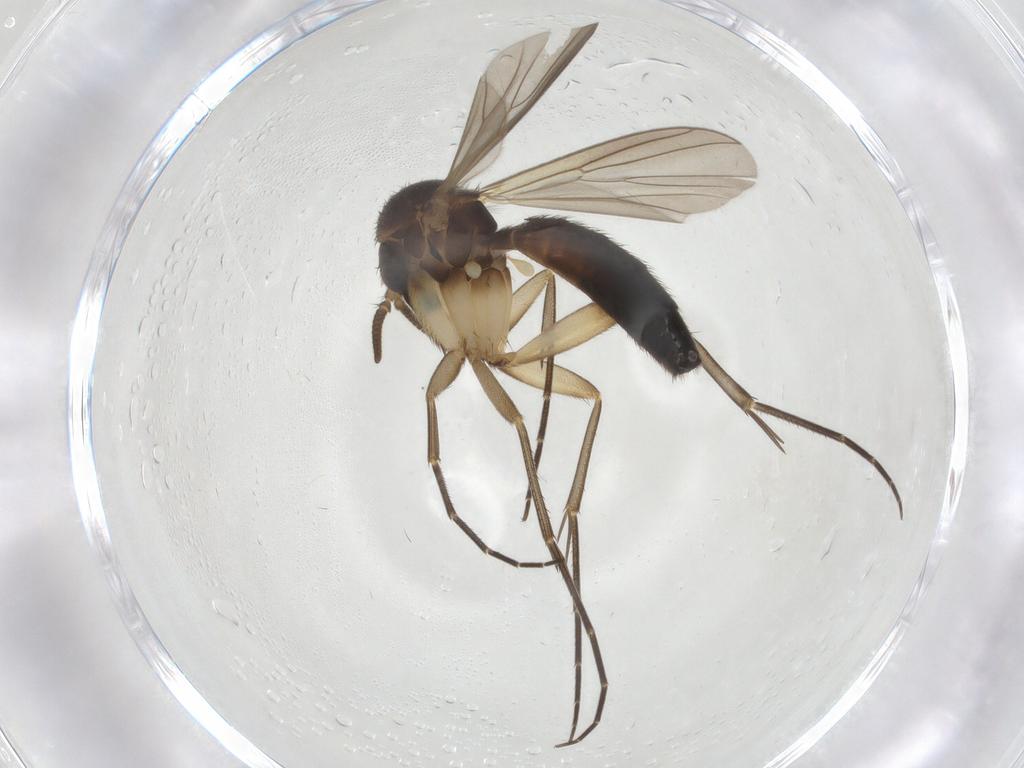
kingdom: Animalia
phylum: Arthropoda
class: Insecta
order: Diptera
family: Mycetophilidae
